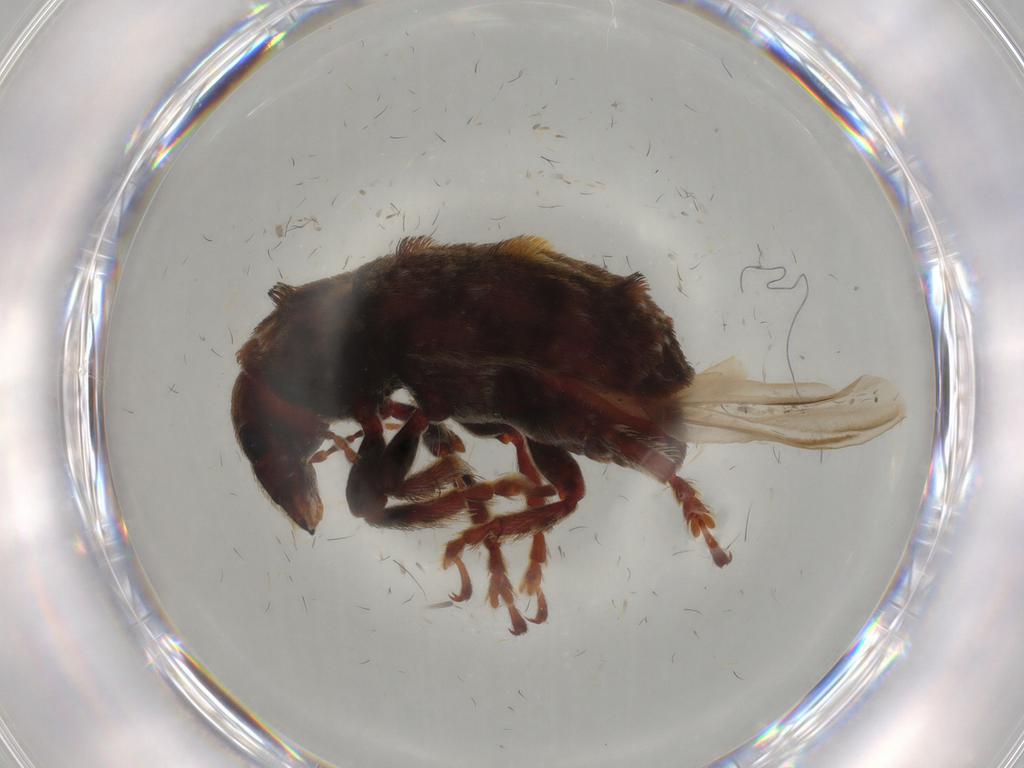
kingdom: Animalia
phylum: Arthropoda
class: Insecta
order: Coleoptera
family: Anthribidae
